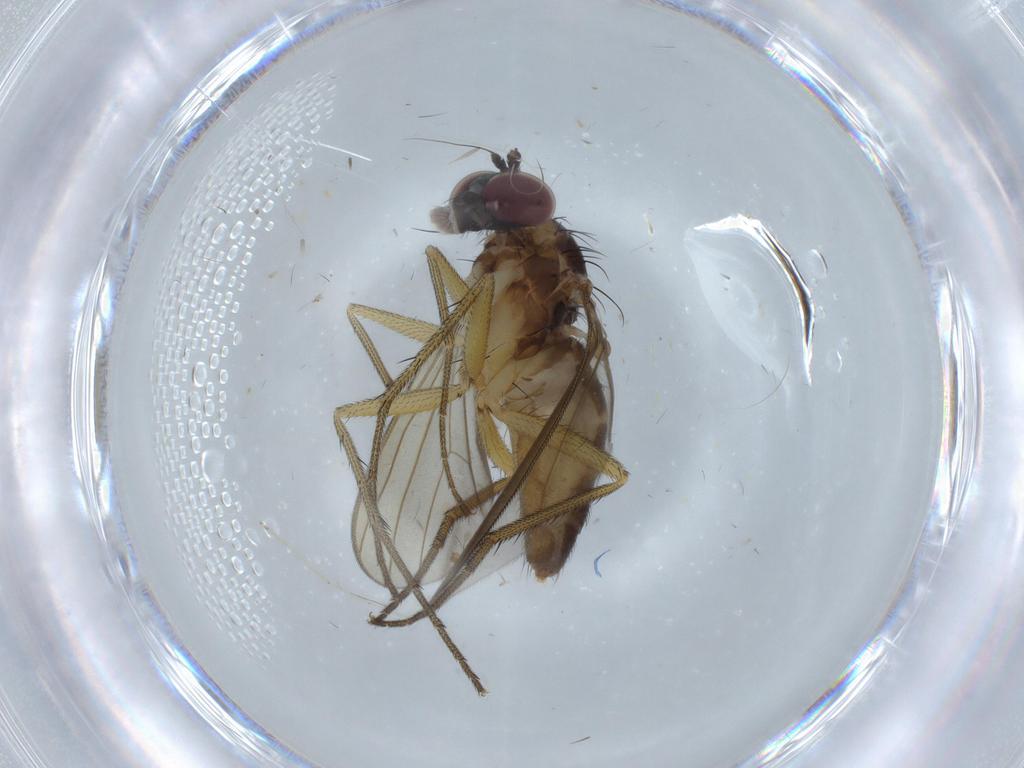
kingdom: Animalia
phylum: Arthropoda
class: Insecta
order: Diptera
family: Dolichopodidae
